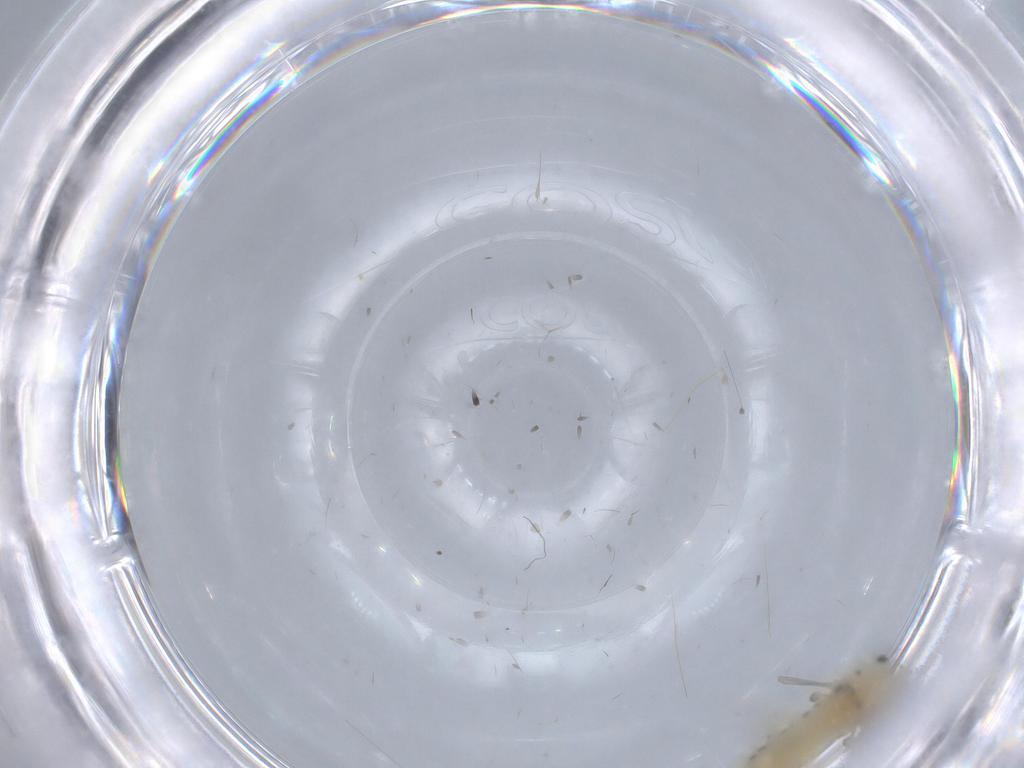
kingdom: Animalia
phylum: Arthropoda
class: Insecta
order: Diptera
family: Chironomidae
